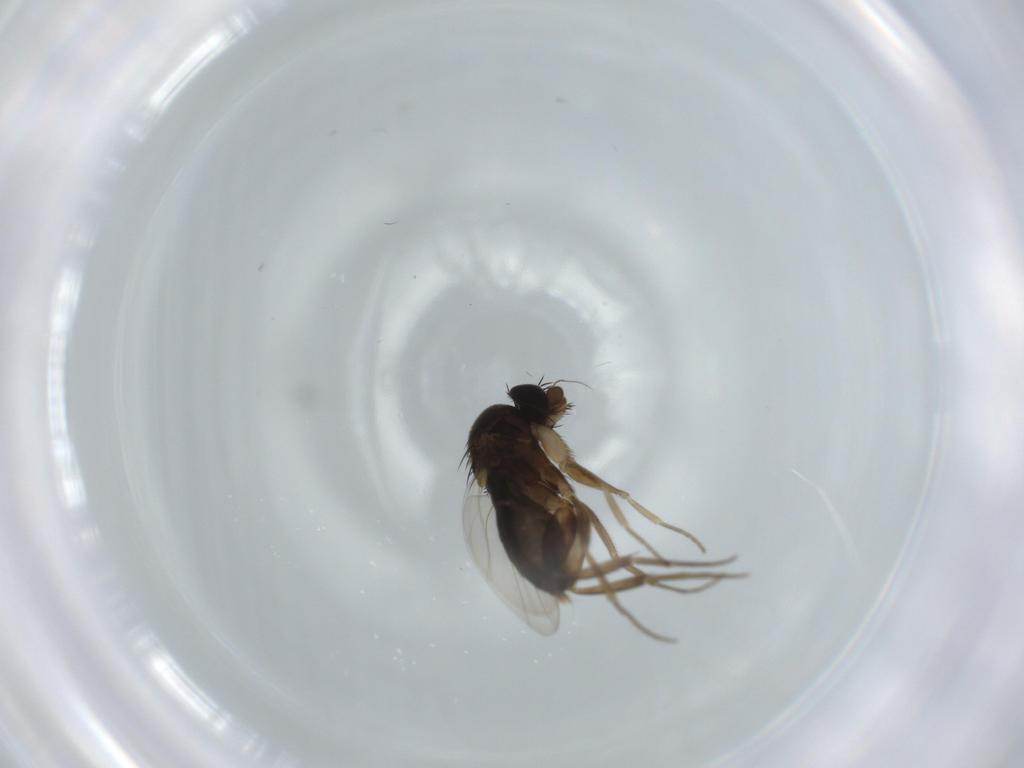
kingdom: Animalia
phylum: Arthropoda
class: Insecta
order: Diptera
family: Phoridae
